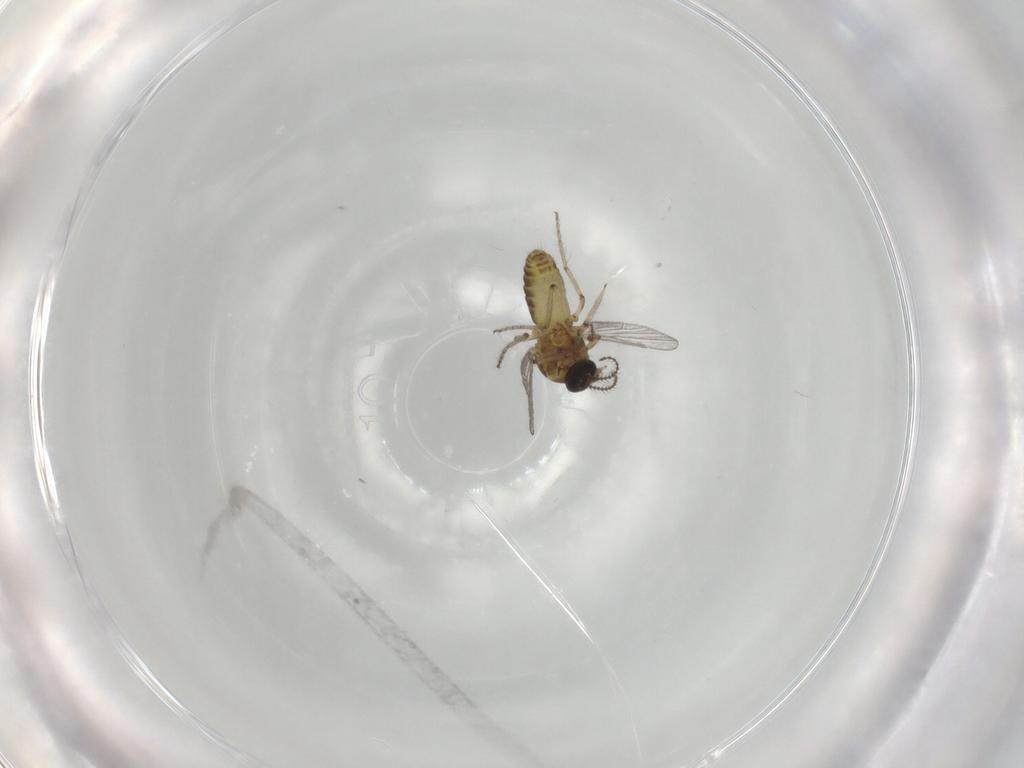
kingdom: Animalia
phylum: Arthropoda
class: Insecta
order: Diptera
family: Ceratopogonidae
